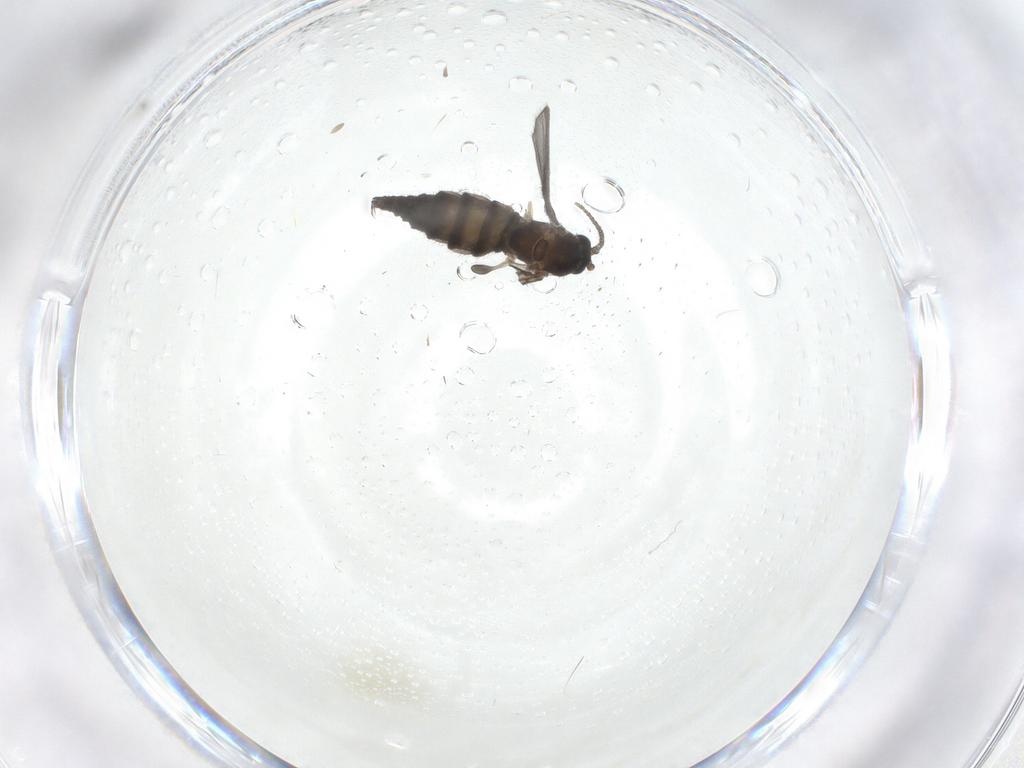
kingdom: Animalia
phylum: Arthropoda
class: Insecta
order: Diptera
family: Sciaridae
